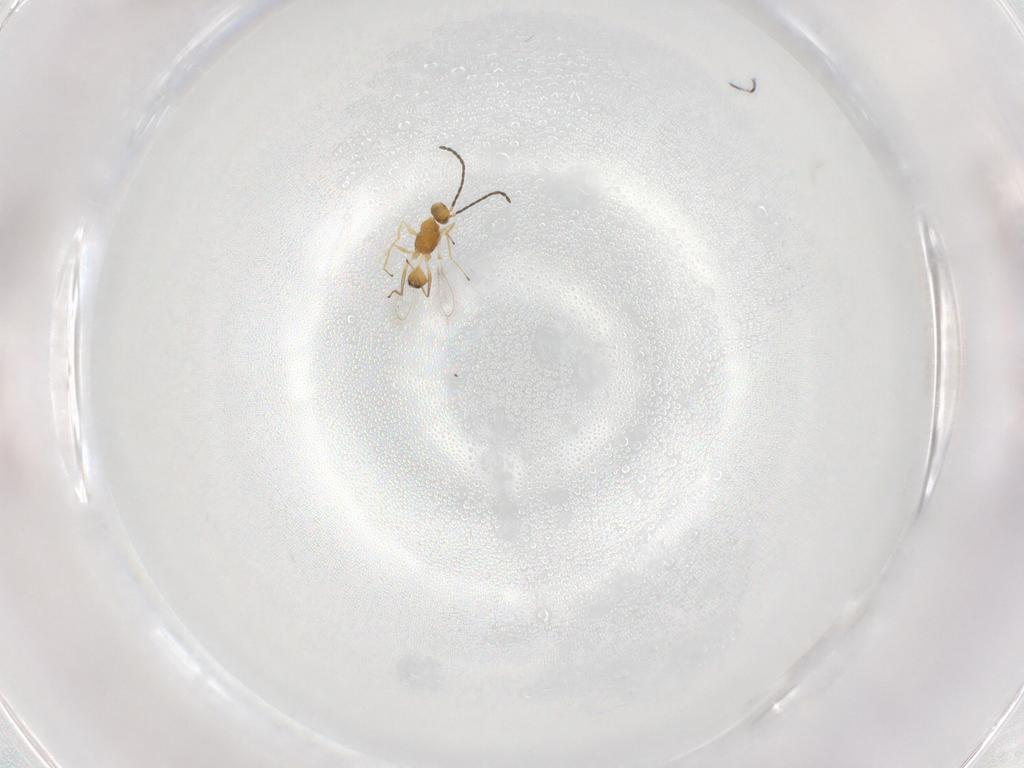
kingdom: Animalia
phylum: Arthropoda
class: Insecta
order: Hymenoptera
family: Mymaridae
